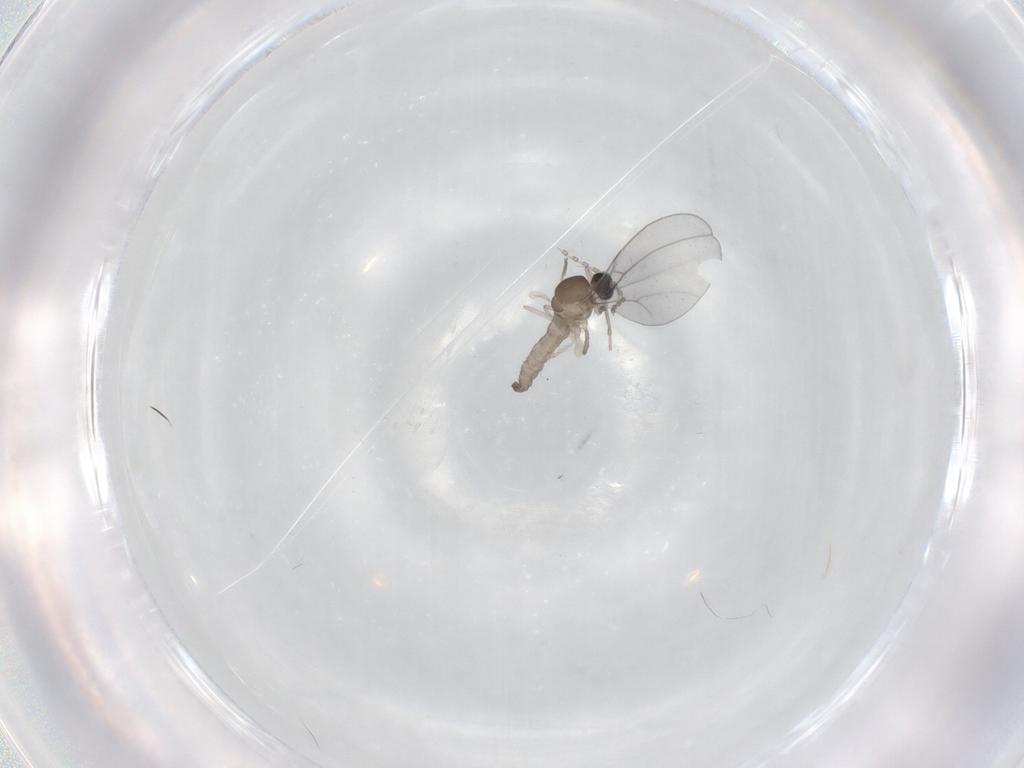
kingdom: Animalia
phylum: Arthropoda
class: Insecta
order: Diptera
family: Cecidomyiidae
